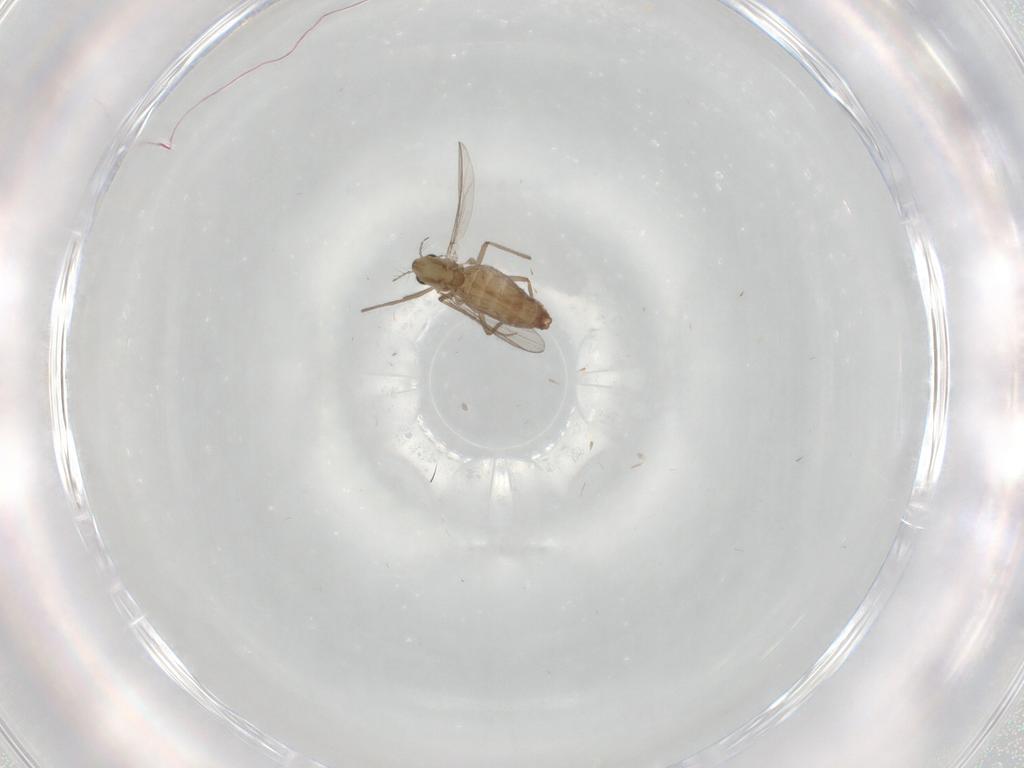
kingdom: Animalia
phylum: Arthropoda
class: Insecta
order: Diptera
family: Chironomidae
